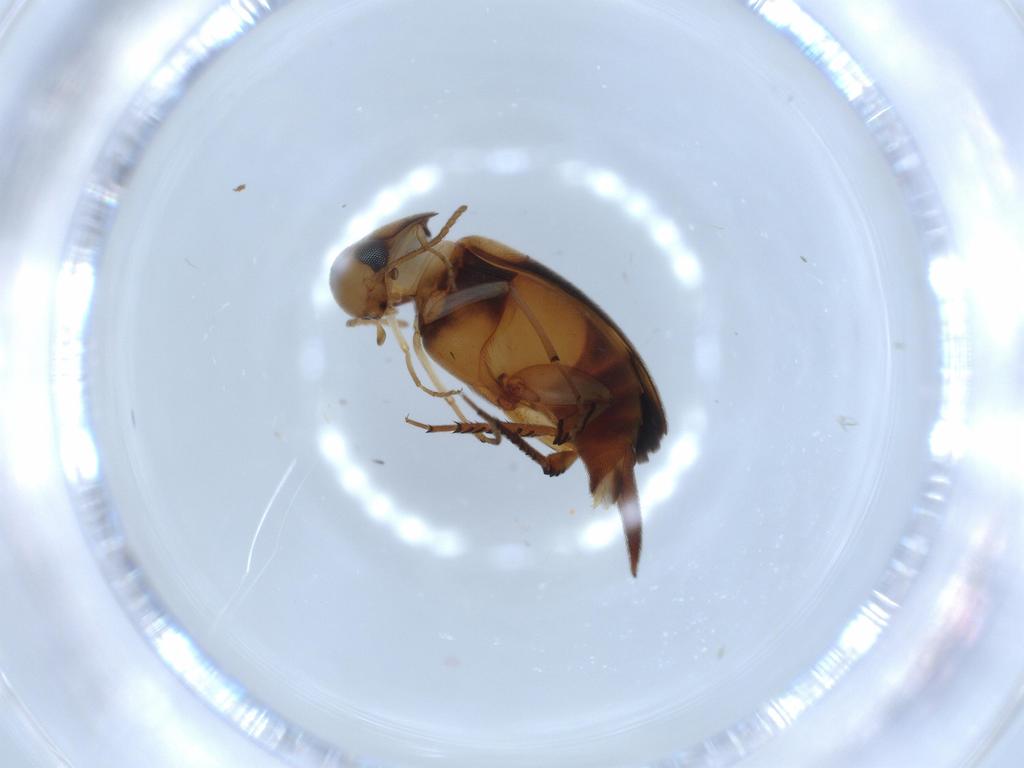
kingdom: Animalia
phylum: Arthropoda
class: Insecta
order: Coleoptera
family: Mordellidae
